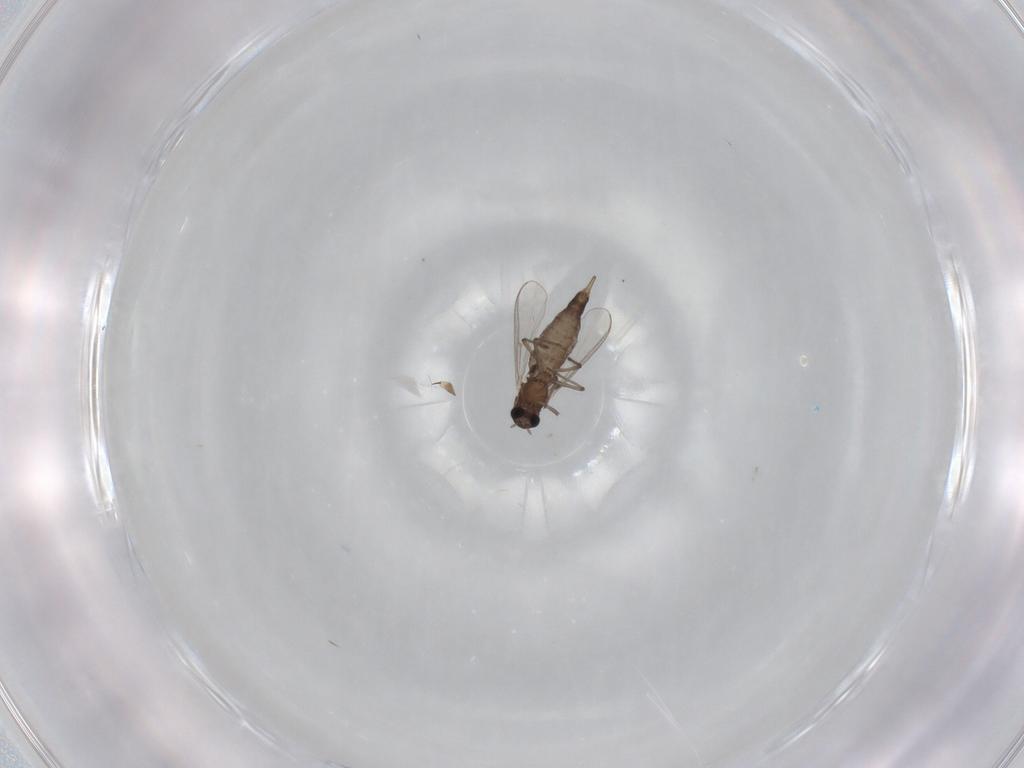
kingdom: Animalia
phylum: Arthropoda
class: Insecta
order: Diptera
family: Chironomidae
